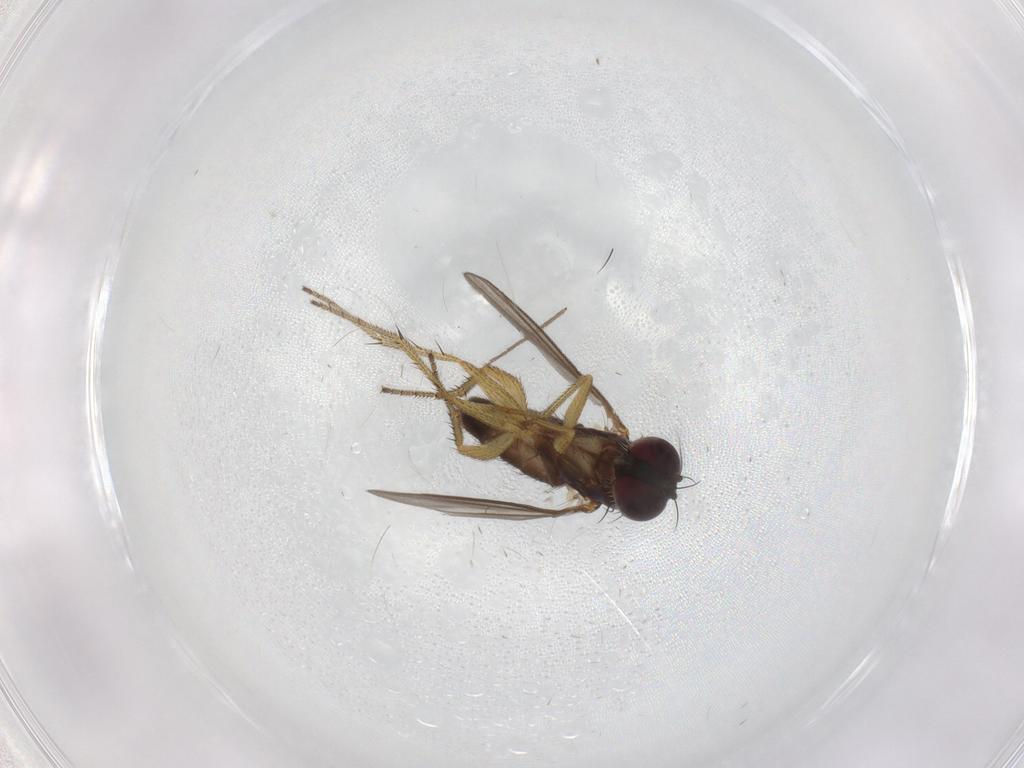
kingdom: Animalia
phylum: Arthropoda
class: Insecta
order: Diptera
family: Dolichopodidae
